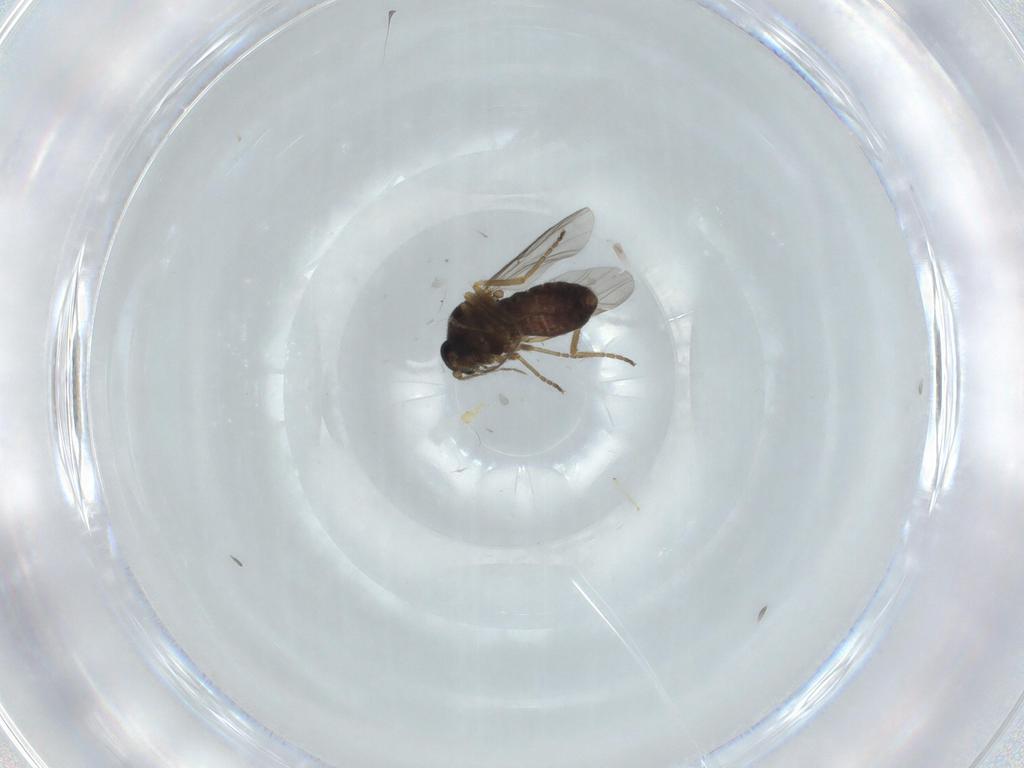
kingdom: Animalia
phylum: Arthropoda
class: Insecta
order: Diptera
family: Ceratopogonidae
